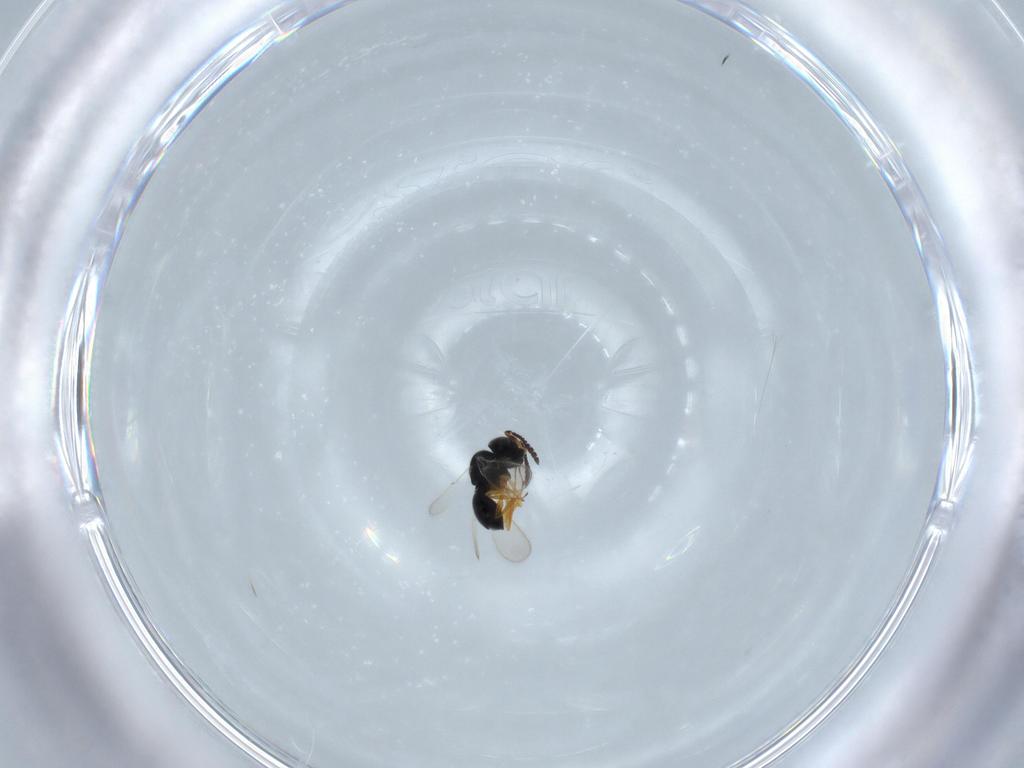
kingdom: Animalia
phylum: Arthropoda
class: Insecta
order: Hymenoptera
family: Scelionidae
